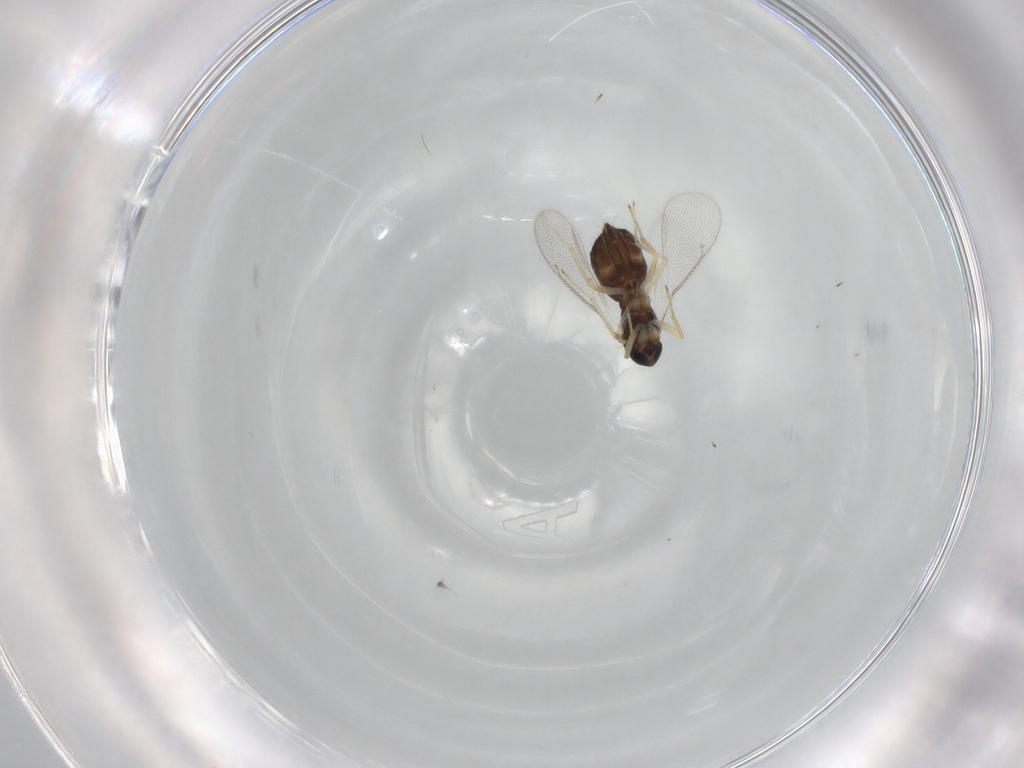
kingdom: Animalia
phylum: Arthropoda
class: Insecta
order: Hymenoptera
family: Eulophidae
